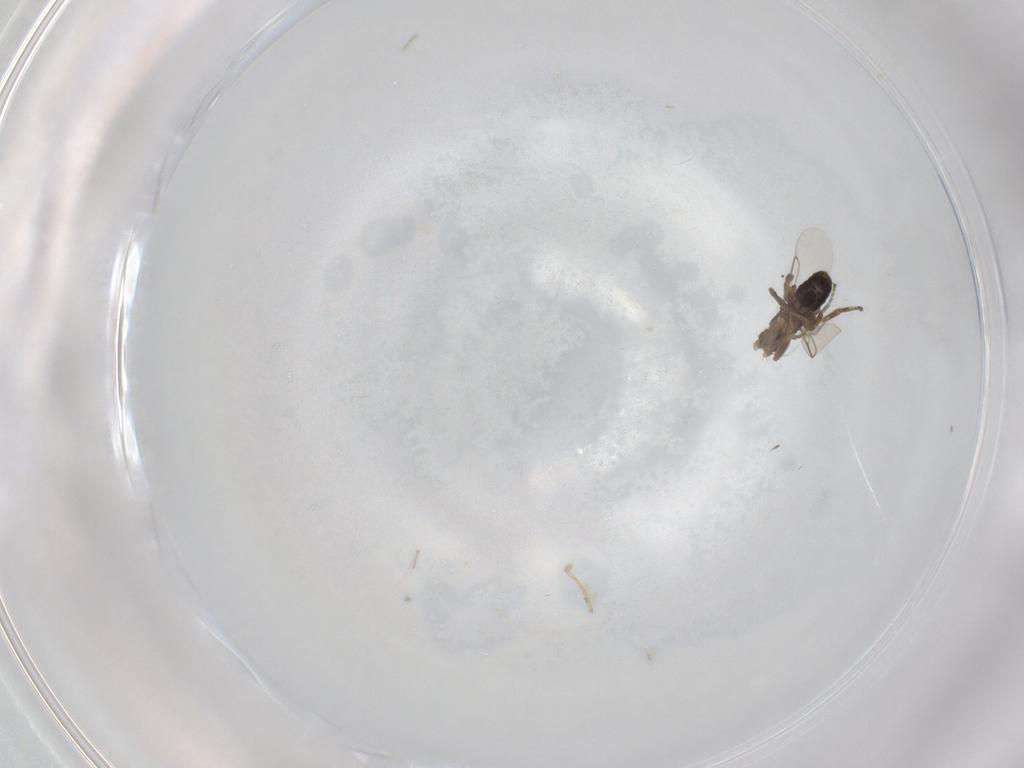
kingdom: Animalia
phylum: Arthropoda
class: Insecta
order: Diptera
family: Phoridae
